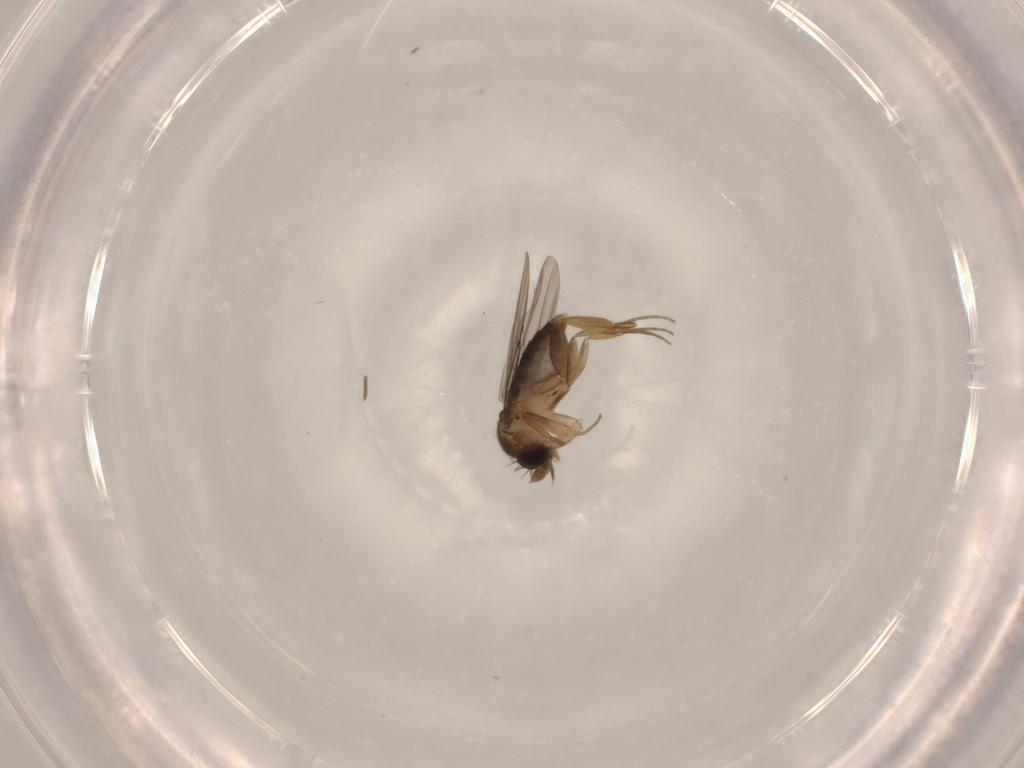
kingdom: Animalia
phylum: Arthropoda
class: Insecta
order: Diptera
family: Phoridae
